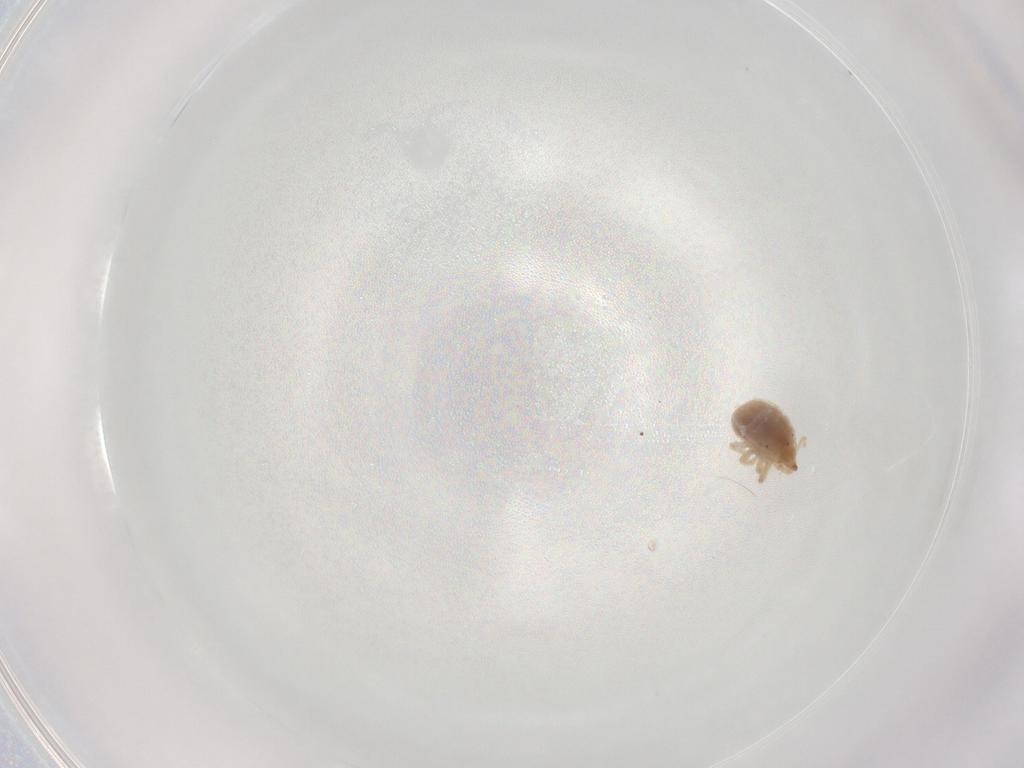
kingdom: Animalia
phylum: Arthropoda
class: Arachnida
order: Trombidiformes
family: Bdellidae
